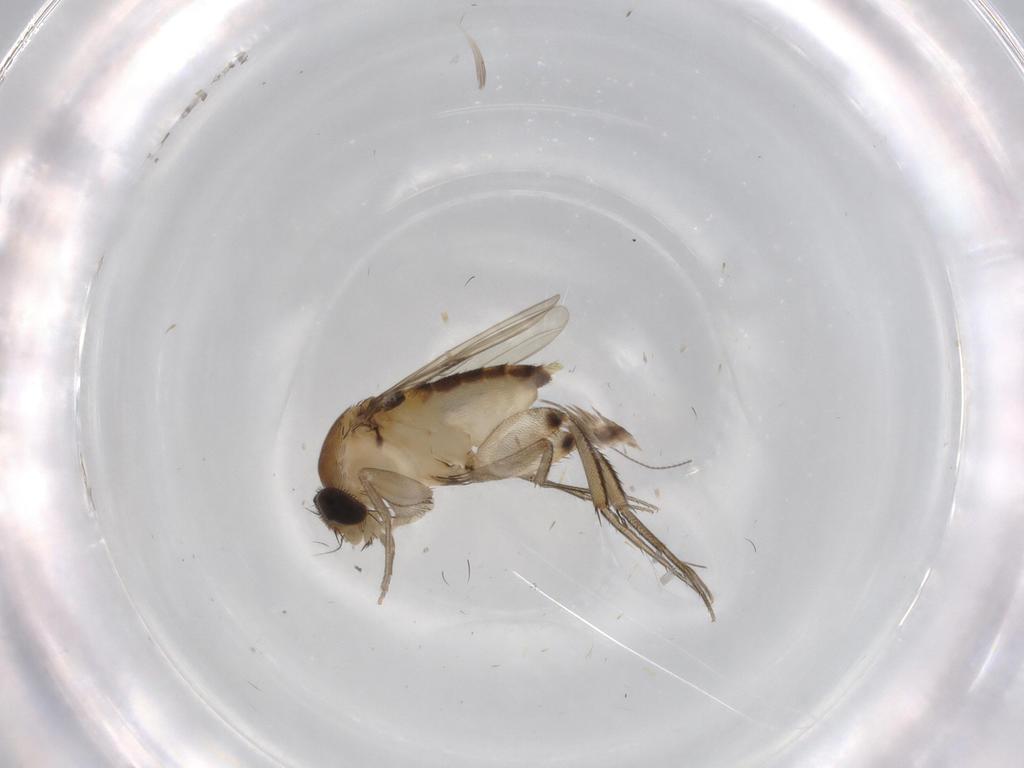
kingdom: Animalia
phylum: Arthropoda
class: Insecta
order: Diptera
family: Phoridae
